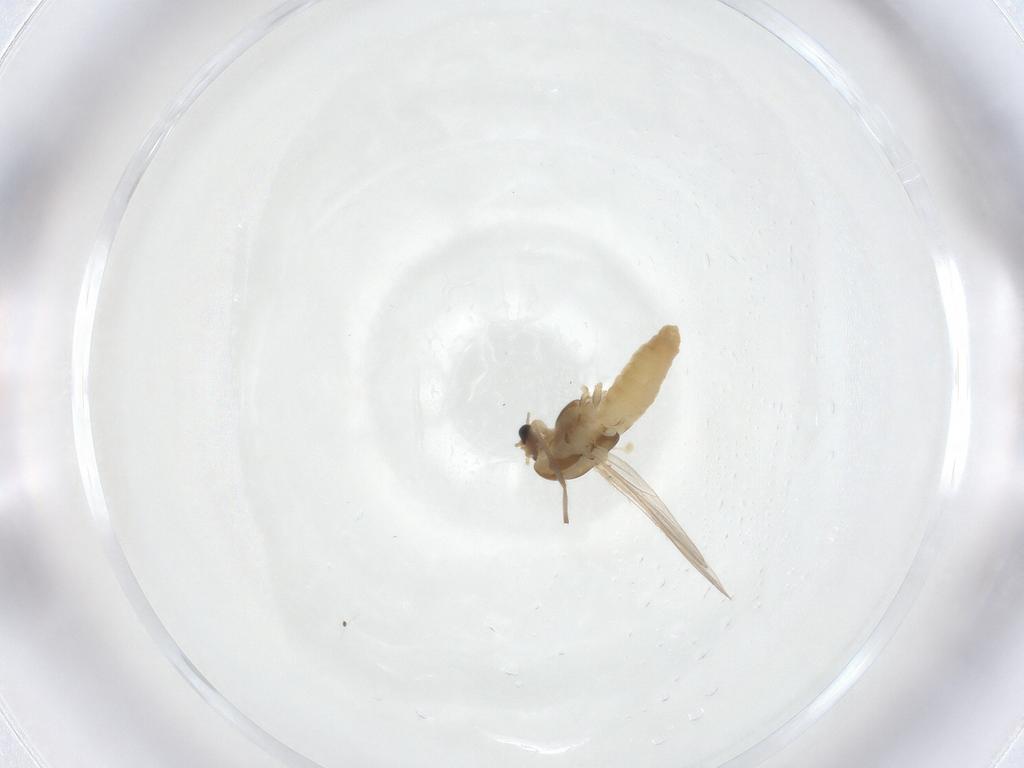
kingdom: Animalia
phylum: Arthropoda
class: Insecta
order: Diptera
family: Chironomidae
